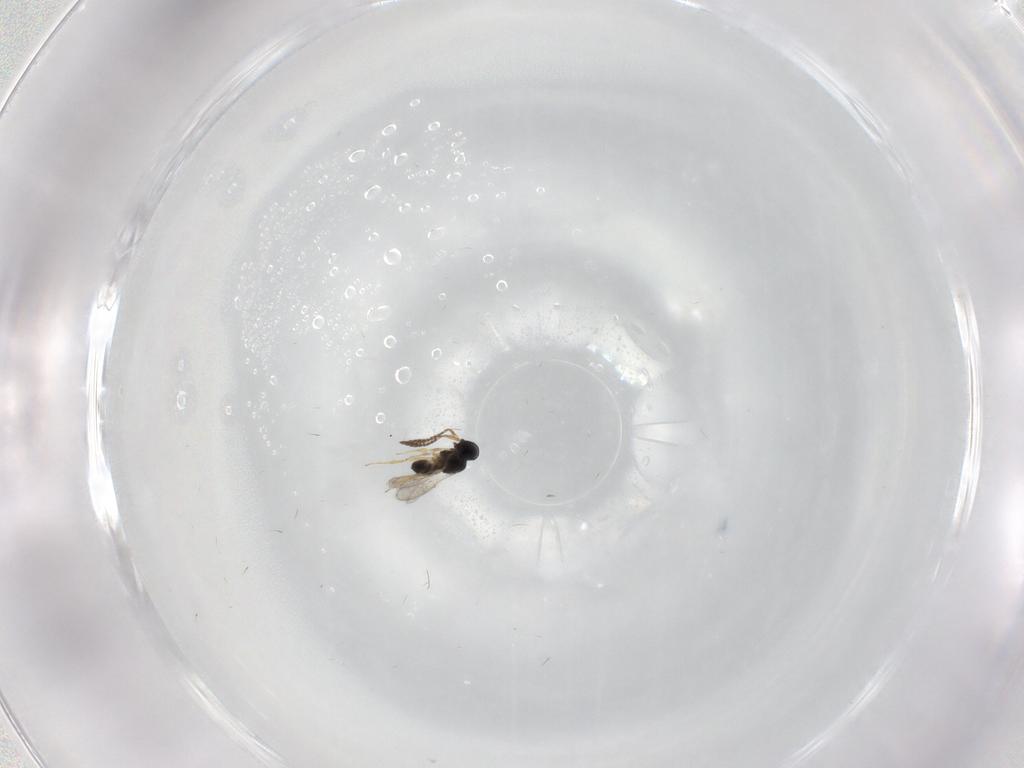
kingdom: Animalia
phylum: Arthropoda
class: Insecta
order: Hymenoptera
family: Scelionidae
